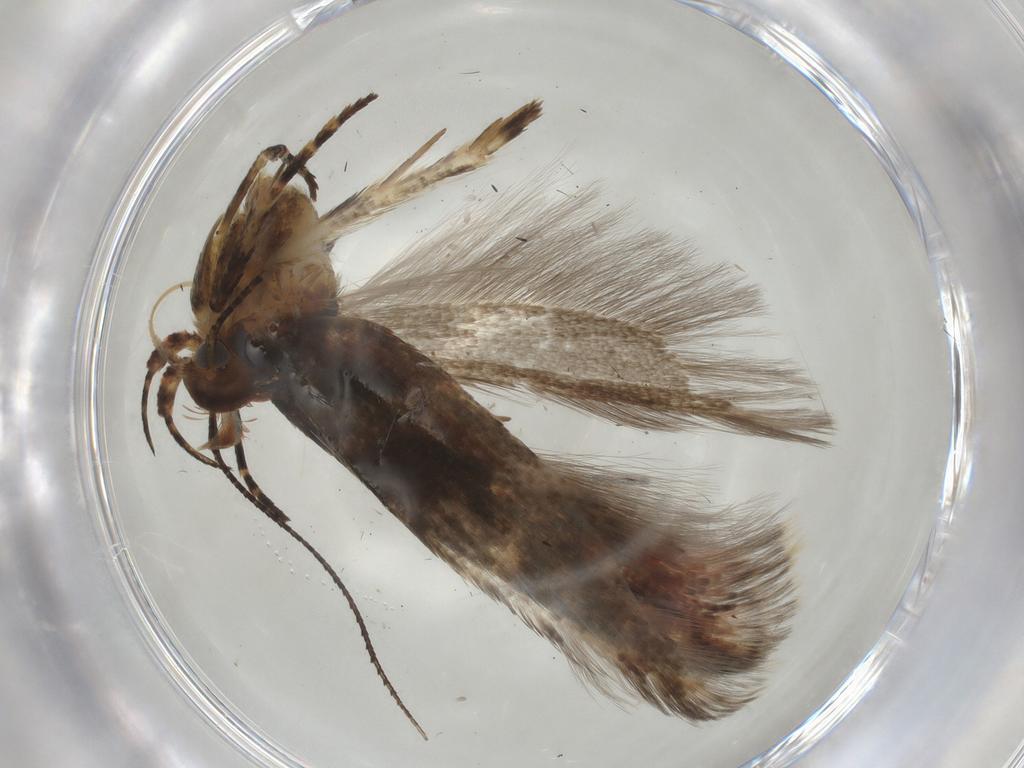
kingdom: Animalia
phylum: Arthropoda
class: Insecta
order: Lepidoptera
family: Gelechiidae
